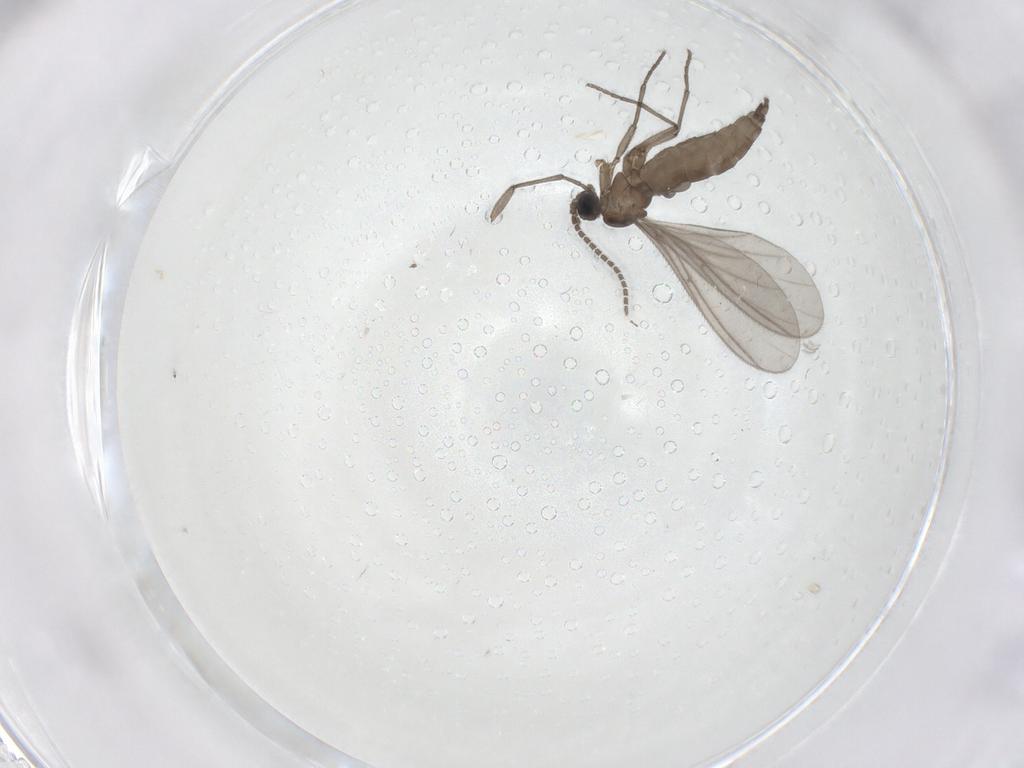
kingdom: Animalia
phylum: Arthropoda
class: Insecta
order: Diptera
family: Sciaridae
